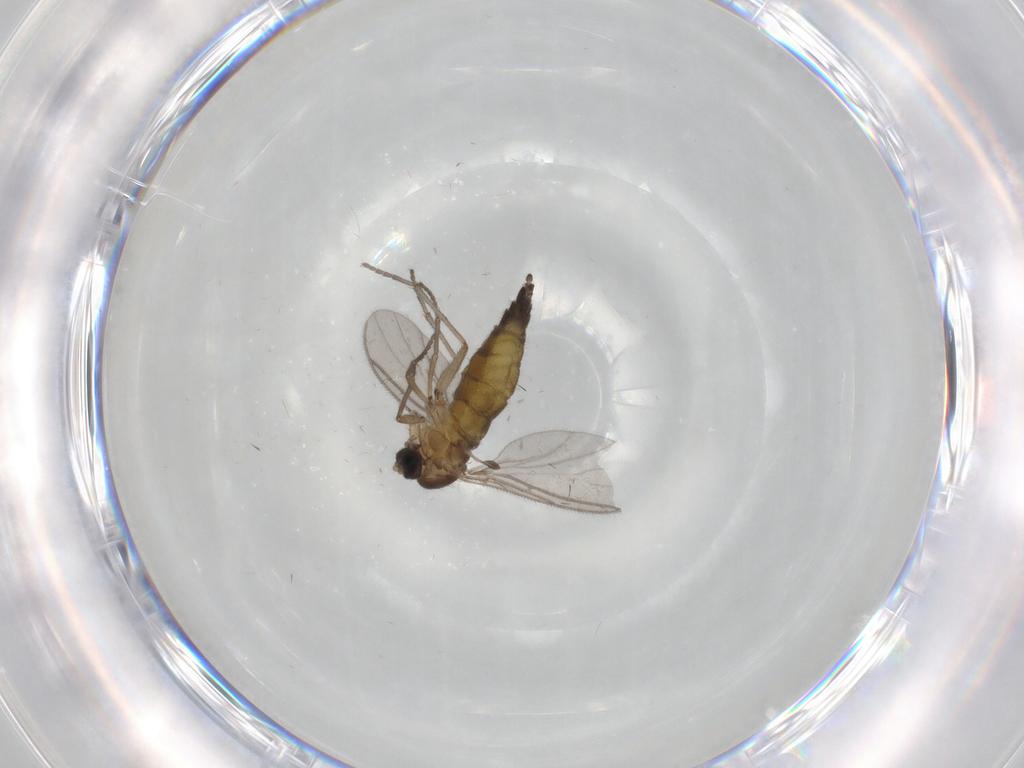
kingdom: Animalia
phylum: Arthropoda
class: Insecta
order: Diptera
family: Sciaridae
